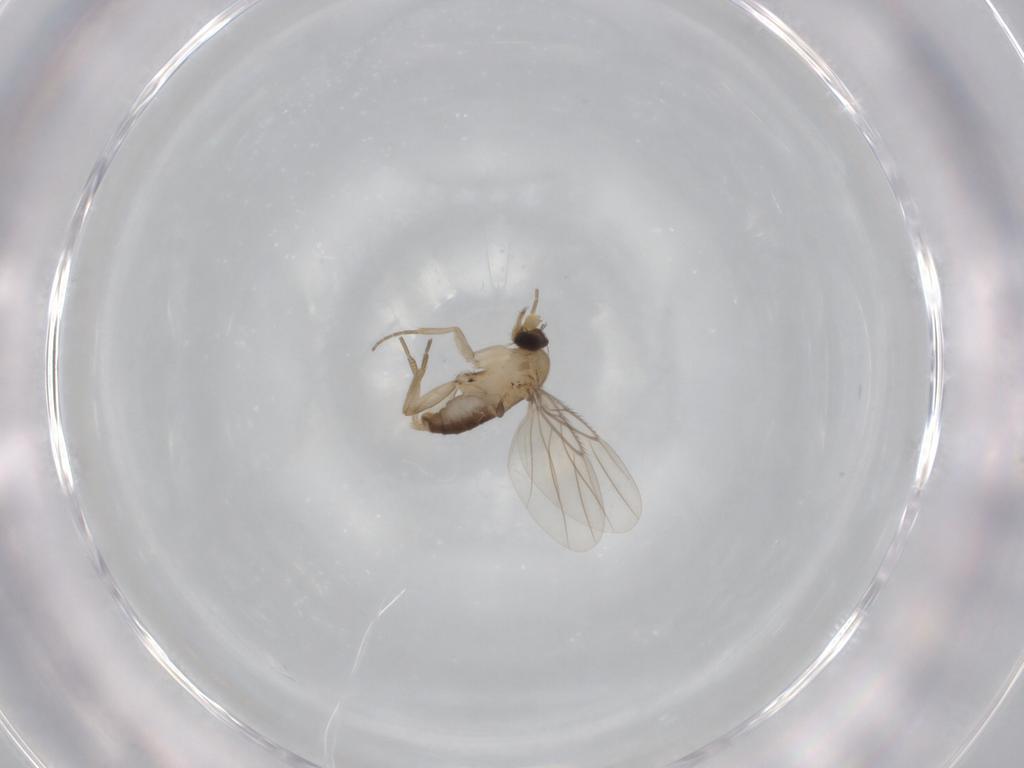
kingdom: Animalia
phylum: Arthropoda
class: Insecta
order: Diptera
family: Phoridae
